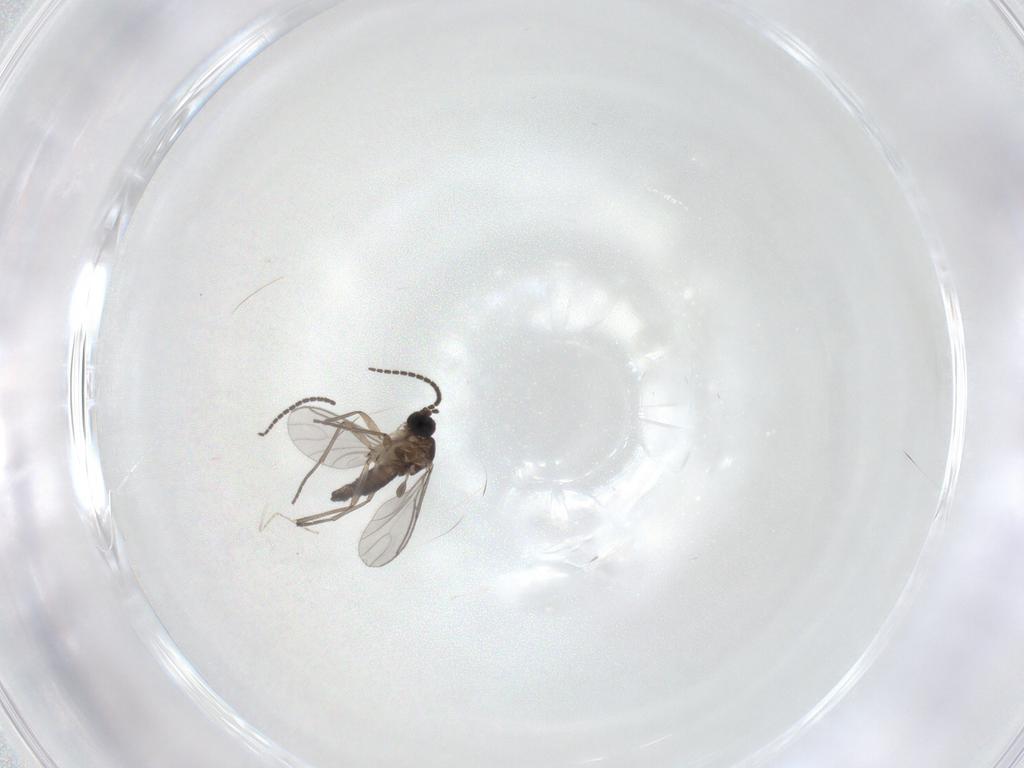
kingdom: Animalia
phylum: Arthropoda
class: Insecta
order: Diptera
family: Sciaridae
